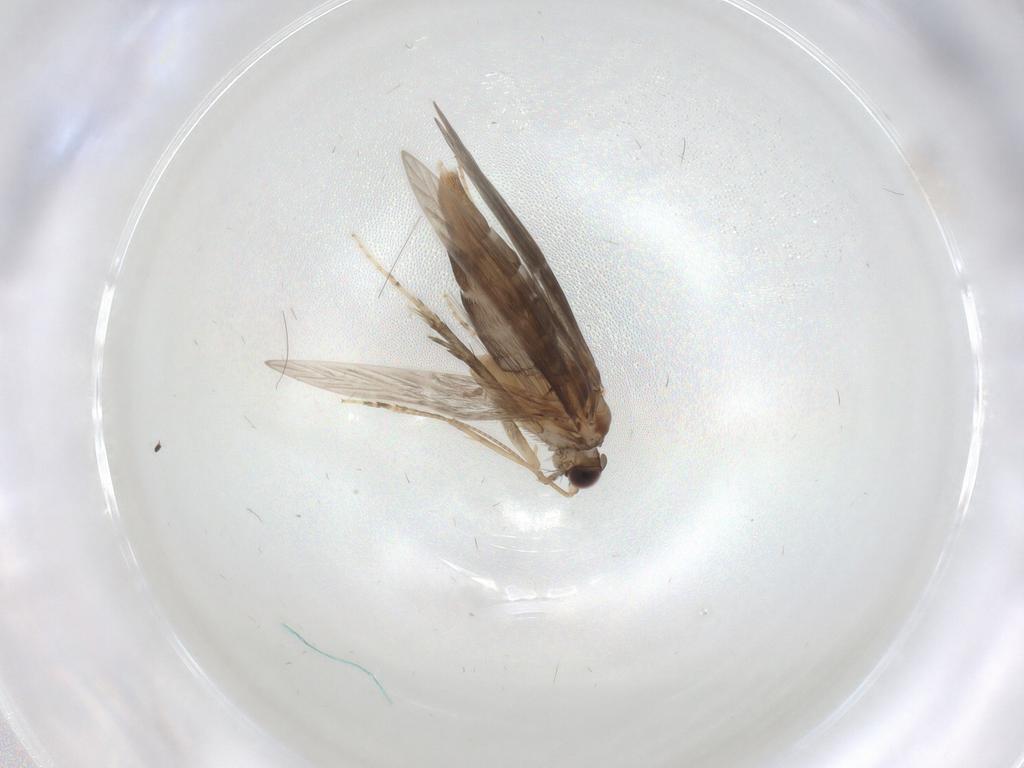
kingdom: Animalia
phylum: Arthropoda
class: Insecta
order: Trichoptera
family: Hydroptilidae
